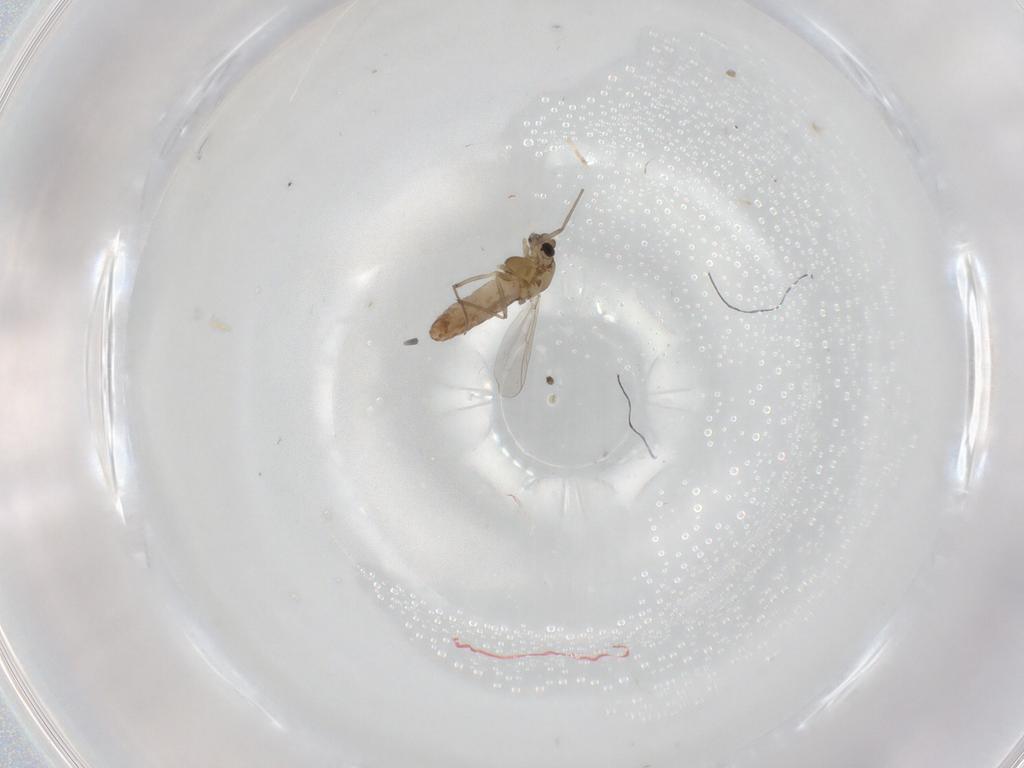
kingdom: Animalia
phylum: Arthropoda
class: Insecta
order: Diptera
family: Chironomidae
